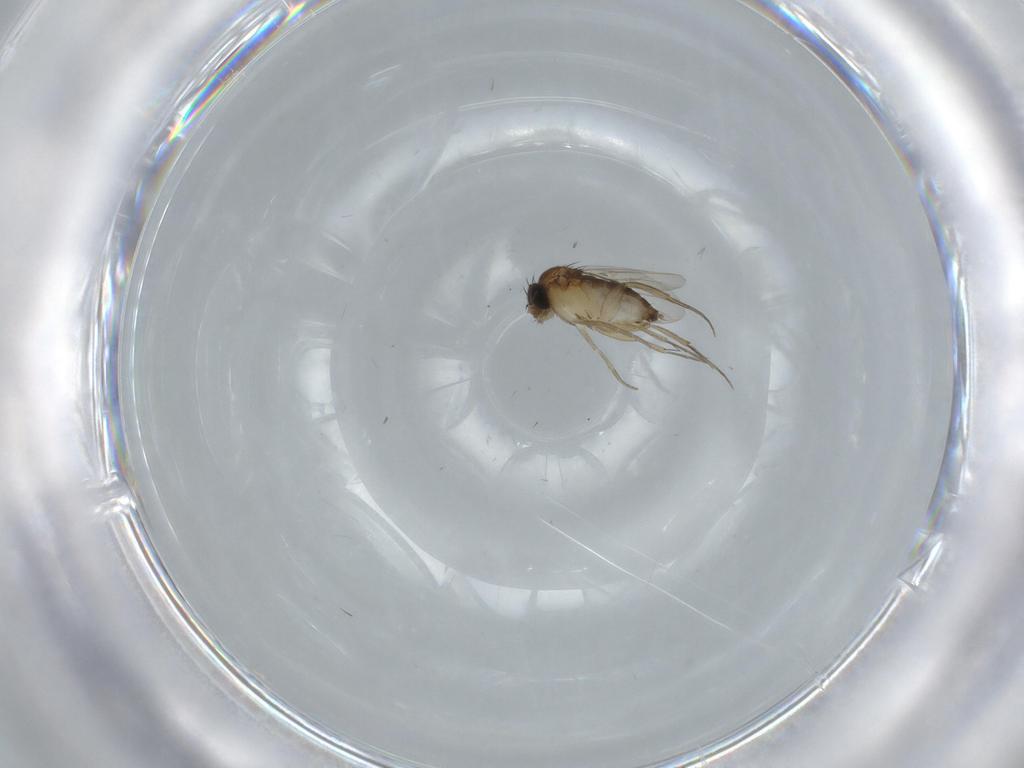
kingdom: Animalia
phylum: Arthropoda
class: Insecta
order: Diptera
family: Phoridae
